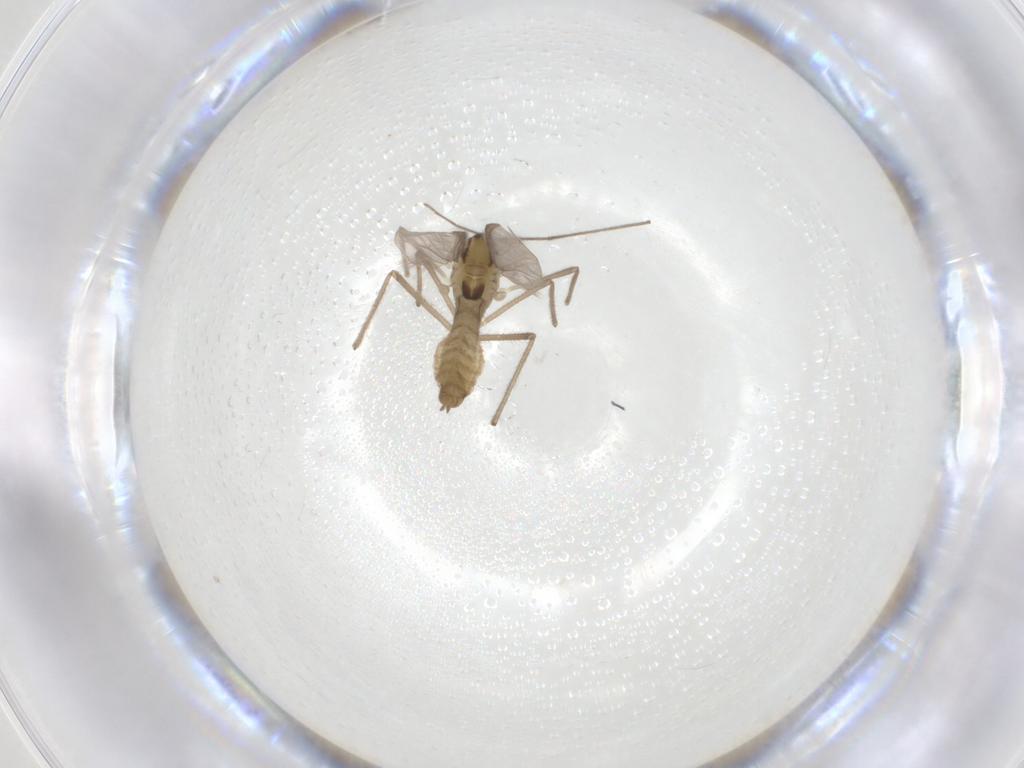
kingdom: Animalia
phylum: Arthropoda
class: Insecta
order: Diptera
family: Chironomidae
